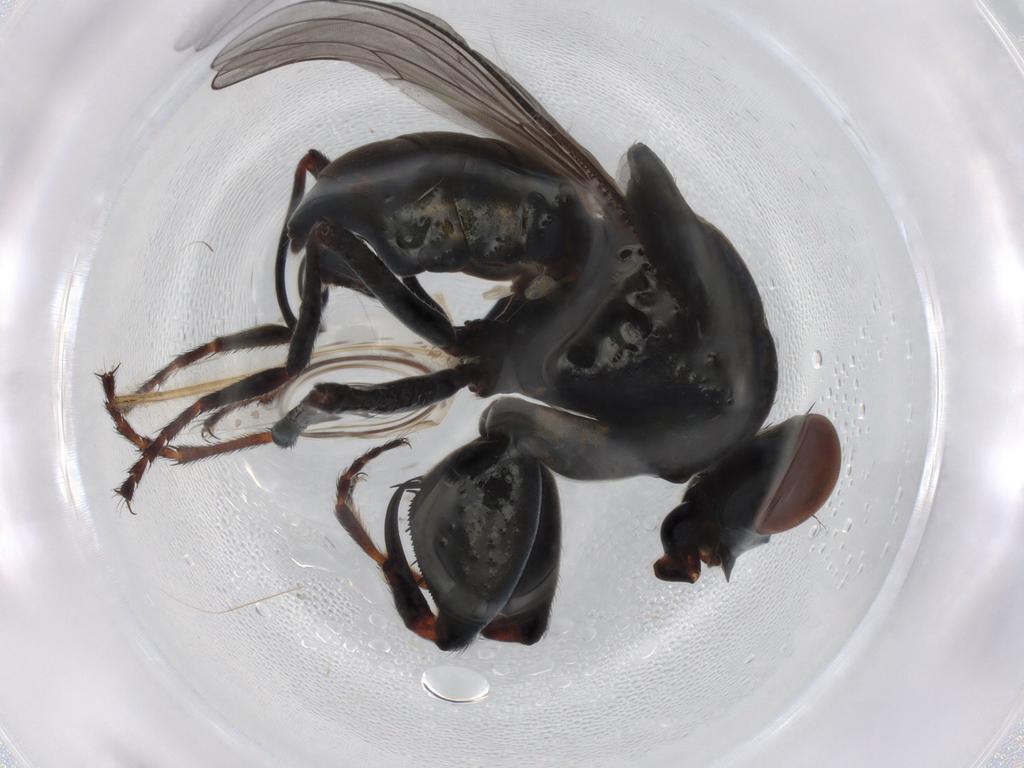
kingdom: Animalia
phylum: Arthropoda
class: Insecta
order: Diptera
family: Ephydridae
